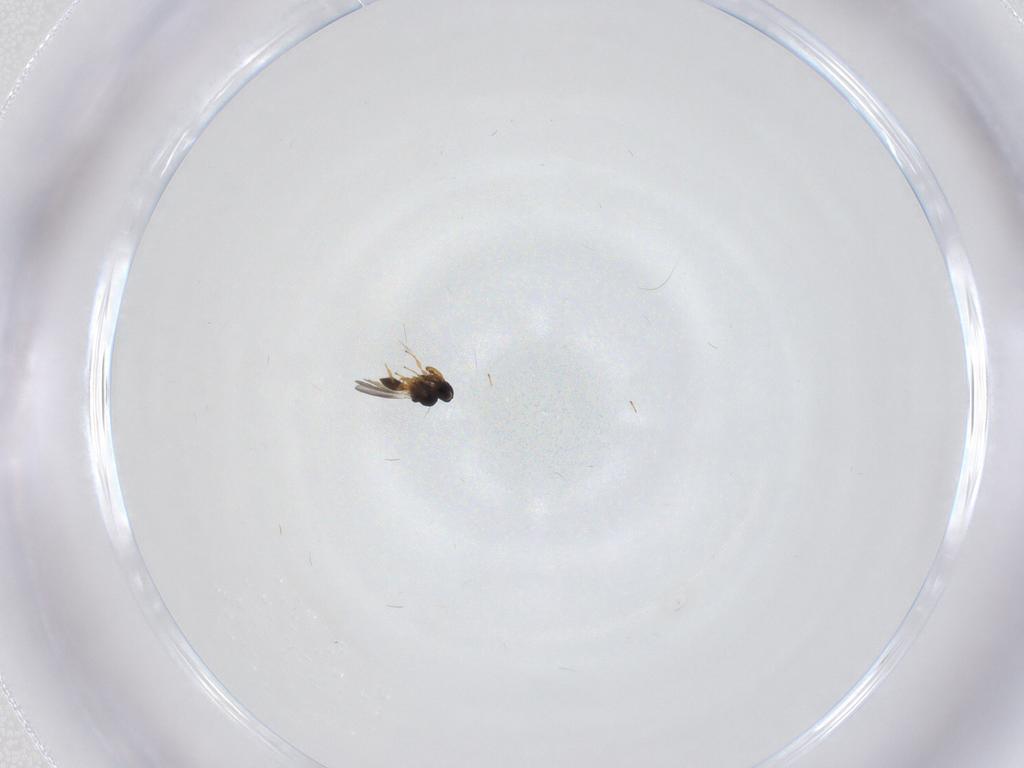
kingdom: Animalia
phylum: Arthropoda
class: Insecta
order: Hymenoptera
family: Platygastridae
